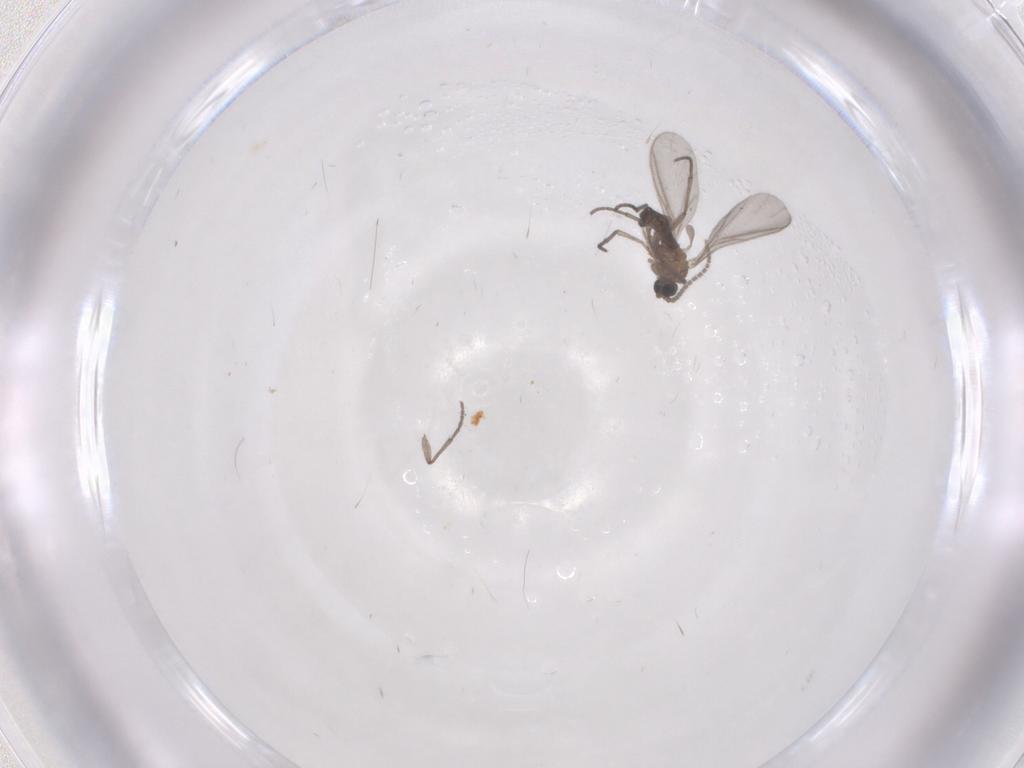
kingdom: Animalia
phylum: Arthropoda
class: Insecta
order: Diptera
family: Sciaridae
